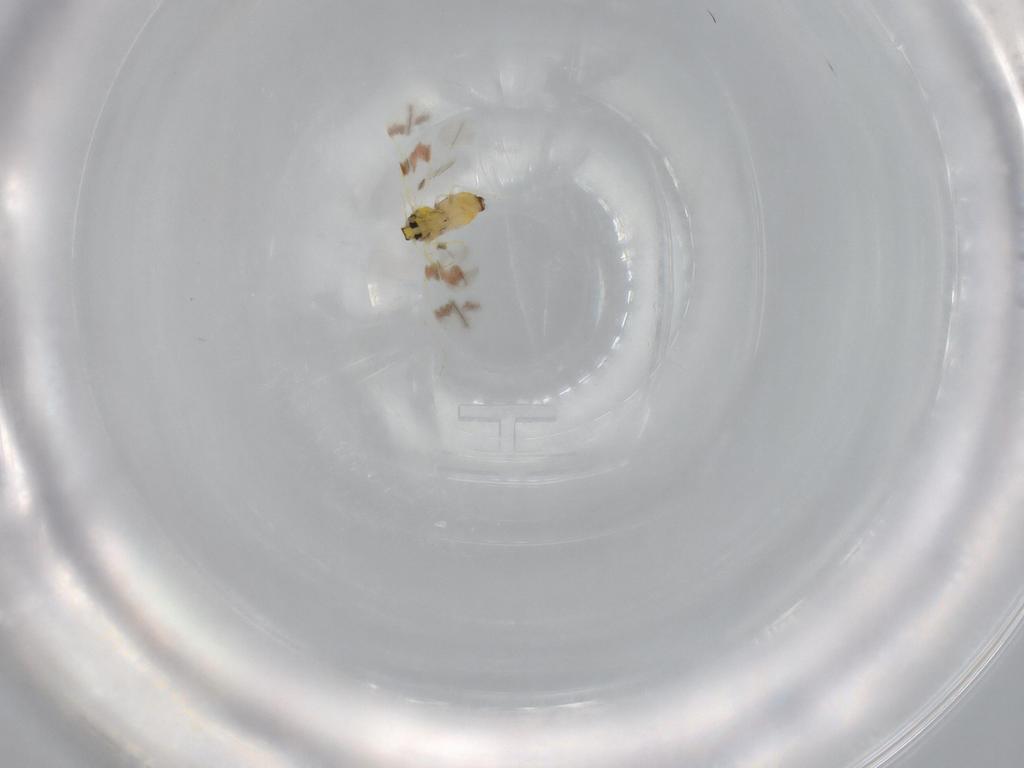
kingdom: Animalia
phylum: Arthropoda
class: Insecta
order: Hemiptera
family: Aleyrodidae
